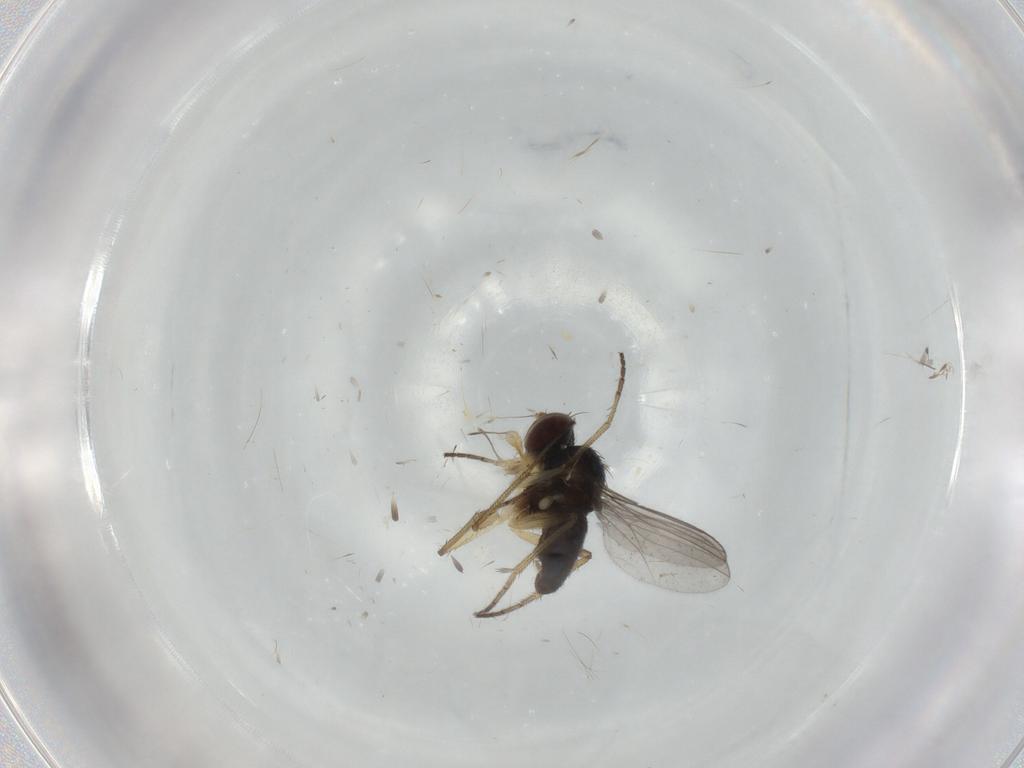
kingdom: Animalia
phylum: Arthropoda
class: Insecta
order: Diptera
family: Dolichopodidae
